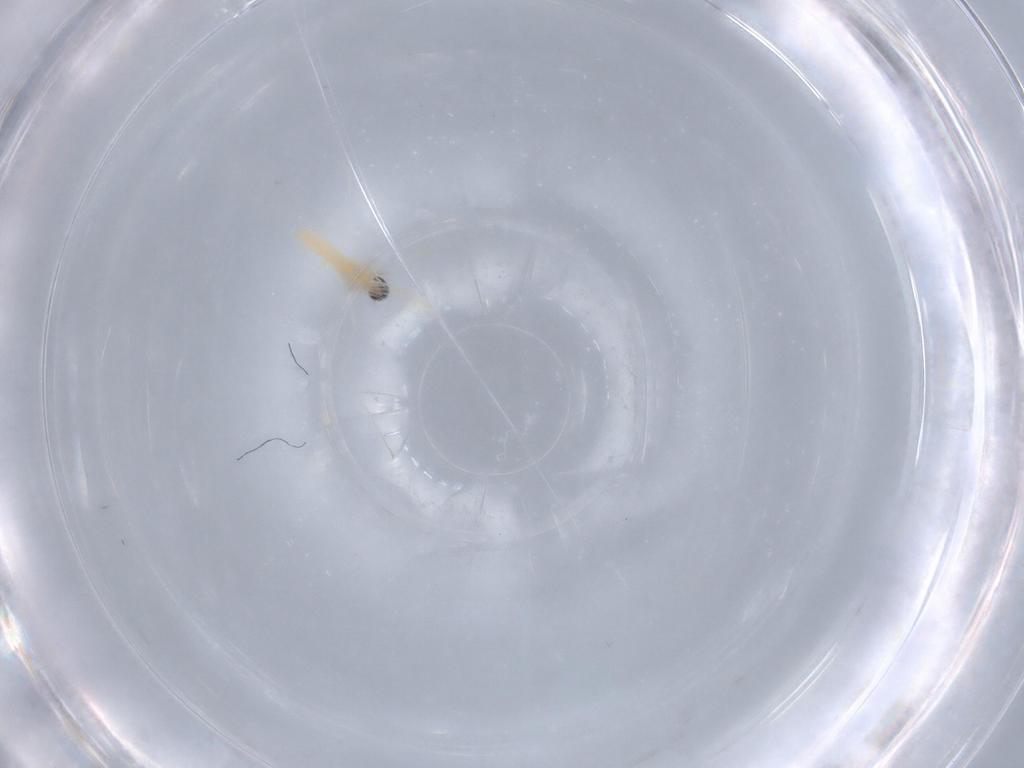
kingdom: Animalia
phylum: Arthropoda
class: Insecta
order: Diptera
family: Cecidomyiidae
